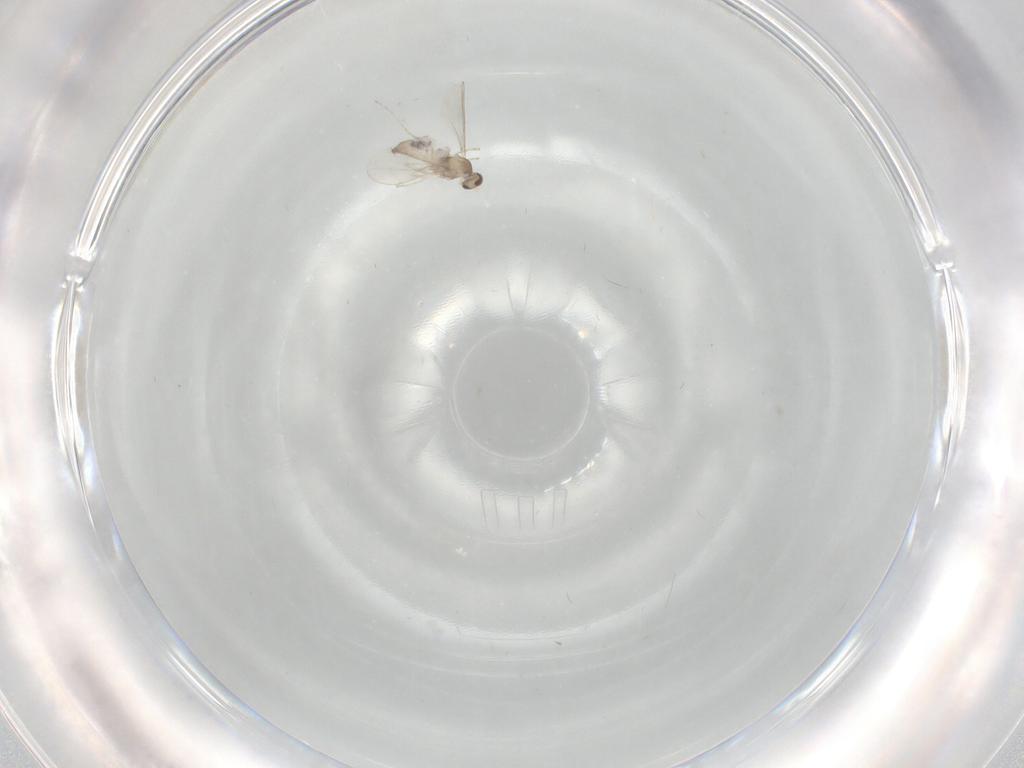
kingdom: Animalia
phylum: Arthropoda
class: Insecta
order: Diptera
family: Cecidomyiidae
